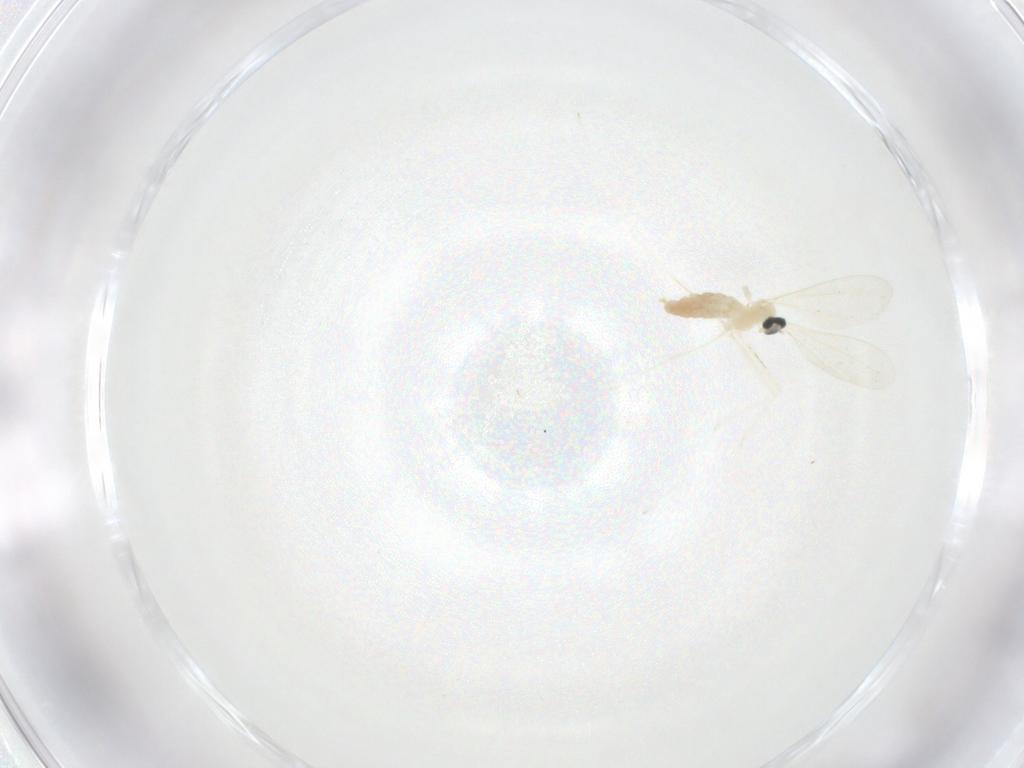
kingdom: Animalia
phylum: Arthropoda
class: Insecta
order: Diptera
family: Cecidomyiidae
